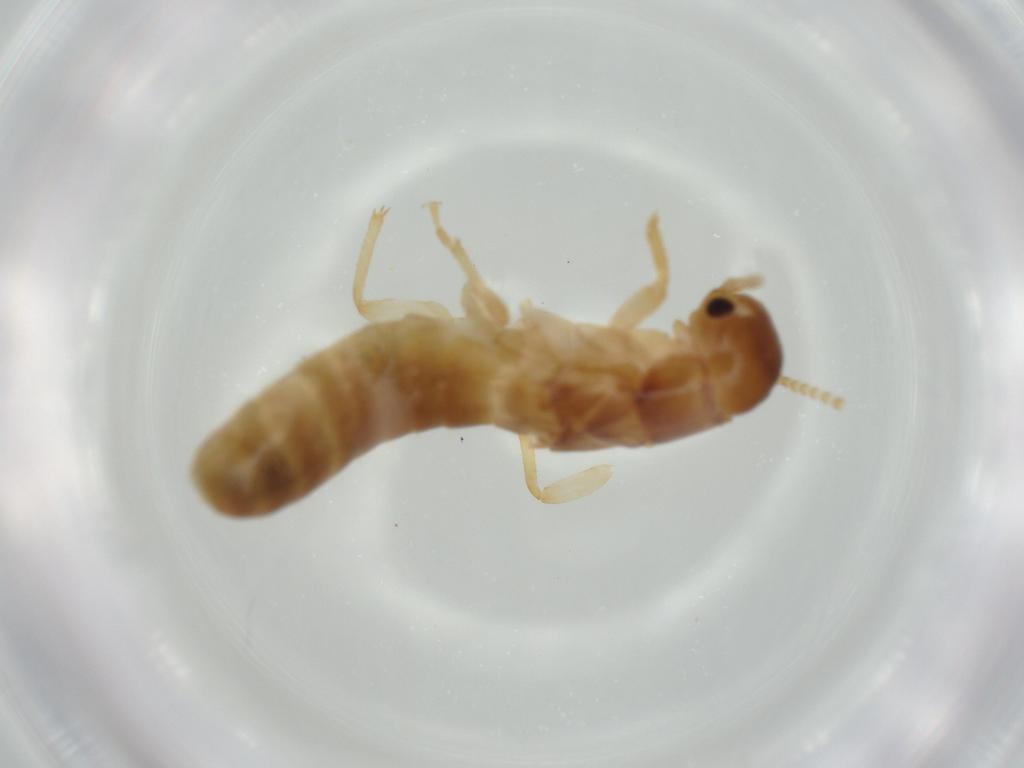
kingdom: Animalia
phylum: Arthropoda
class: Insecta
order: Blattodea
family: Kalotermitidae
